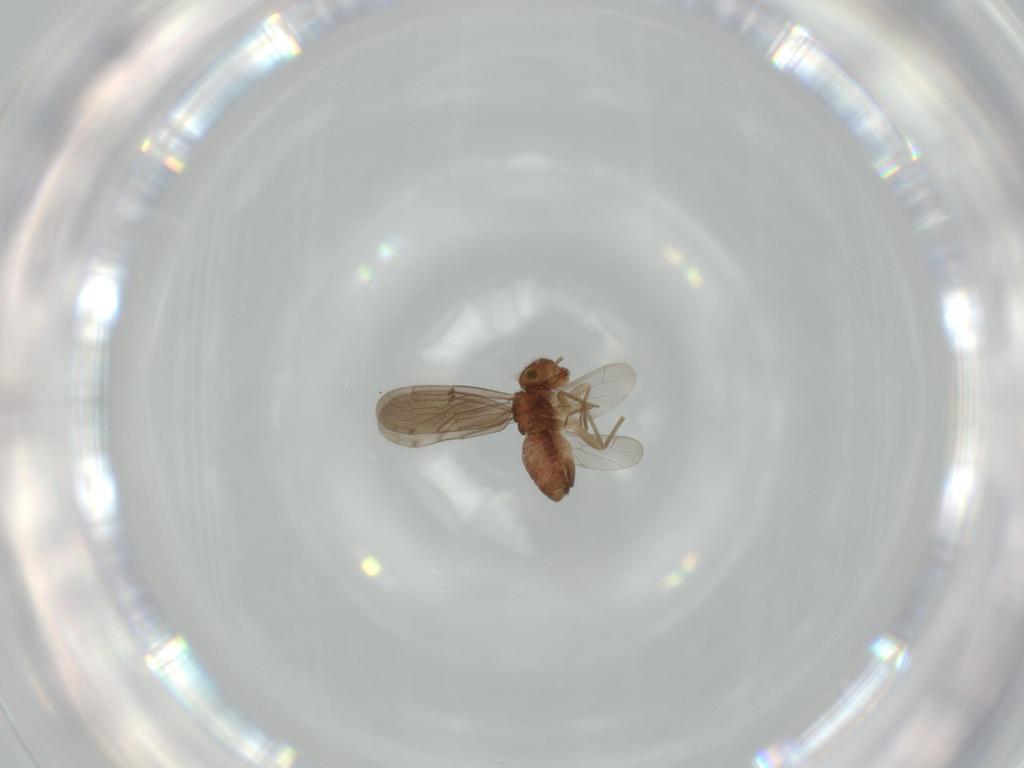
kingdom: Animalia
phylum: Arthropoda
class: Insecta
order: Psocodea
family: Ectopsocidae
